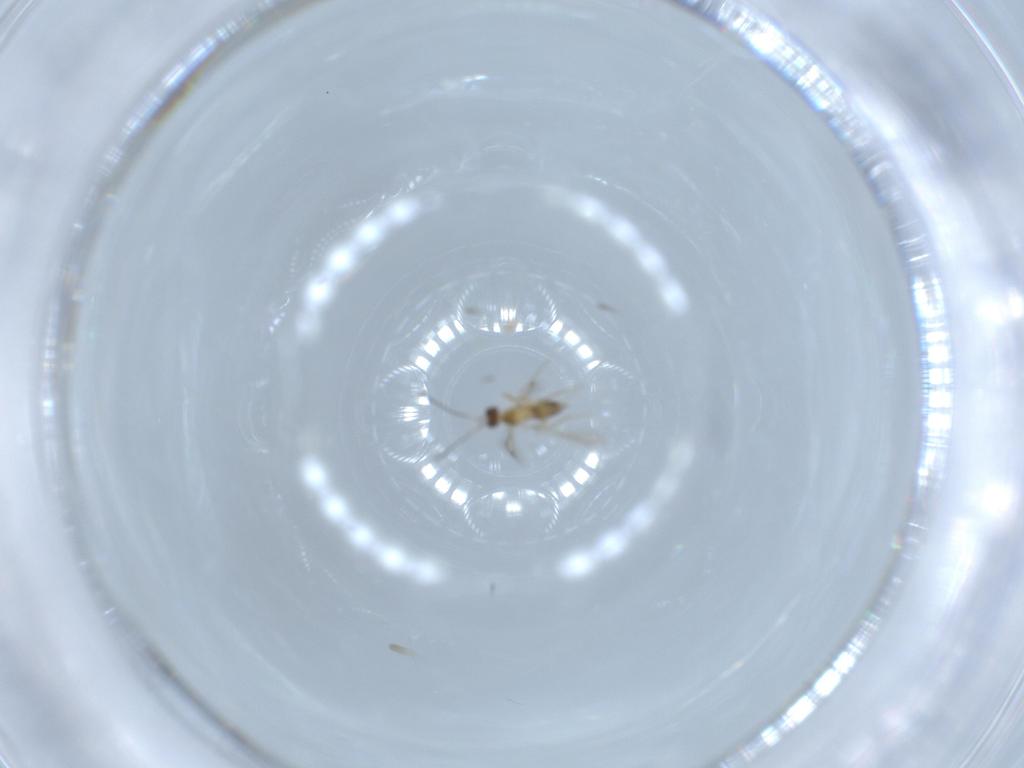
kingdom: Animalia
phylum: Arthropoda
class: Insecta
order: Hymenoptera
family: Mymaridae
